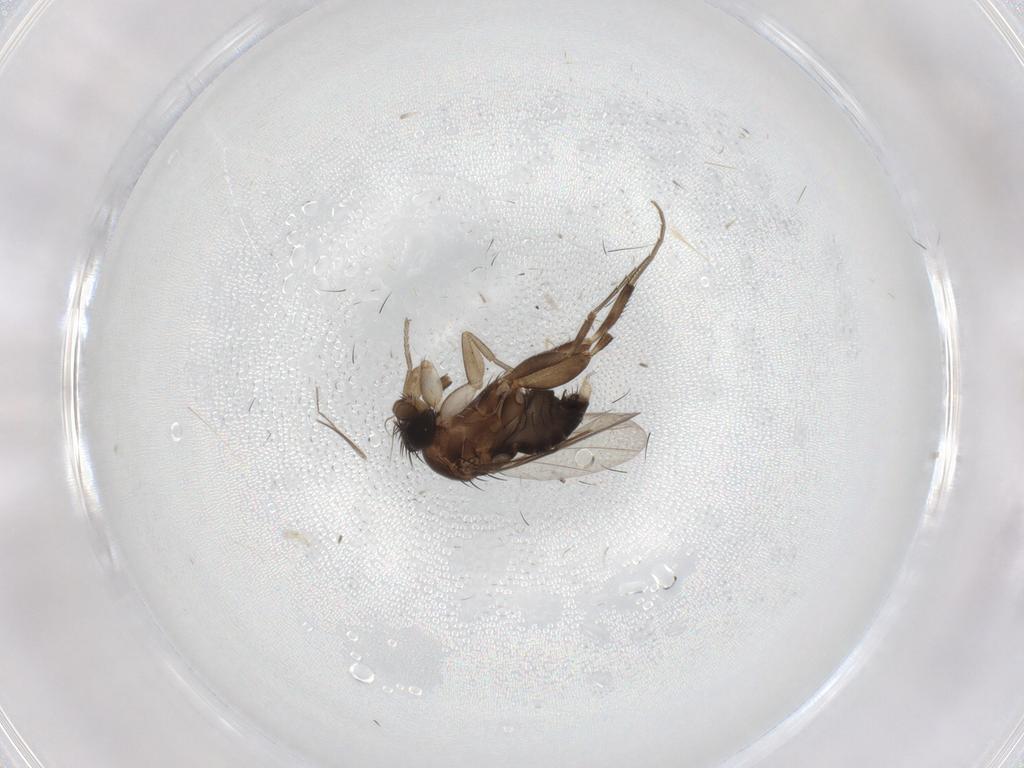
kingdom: Animalia
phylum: Arthropoda
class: Insecta
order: Diptera
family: Phoridae
